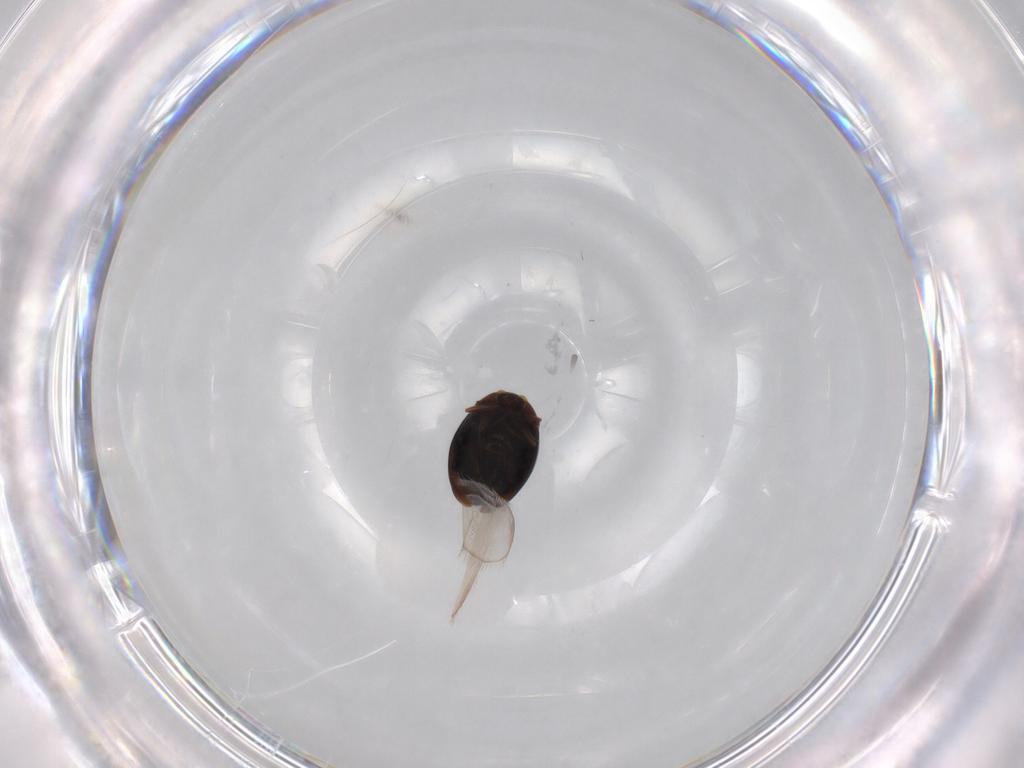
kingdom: Animalia
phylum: Arthropoda
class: Insecta
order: Coleoptera
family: Corylophidae
